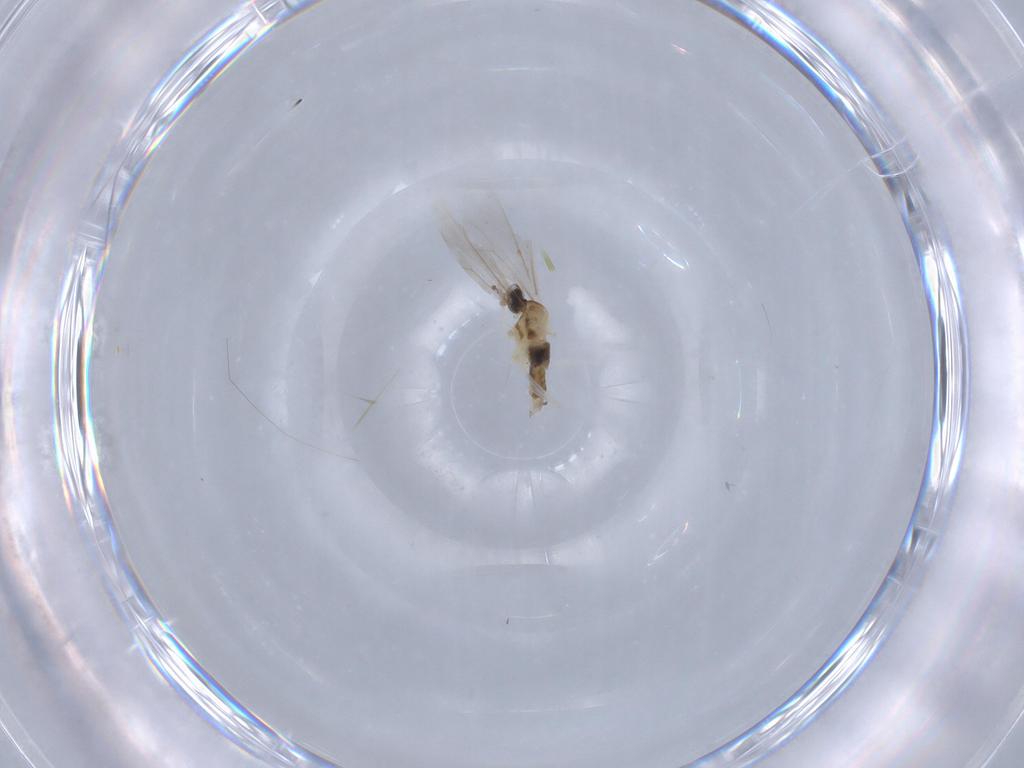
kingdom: Animalia
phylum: Arthropoda
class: Insecta
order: Diptera
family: Cecidomyiidae
